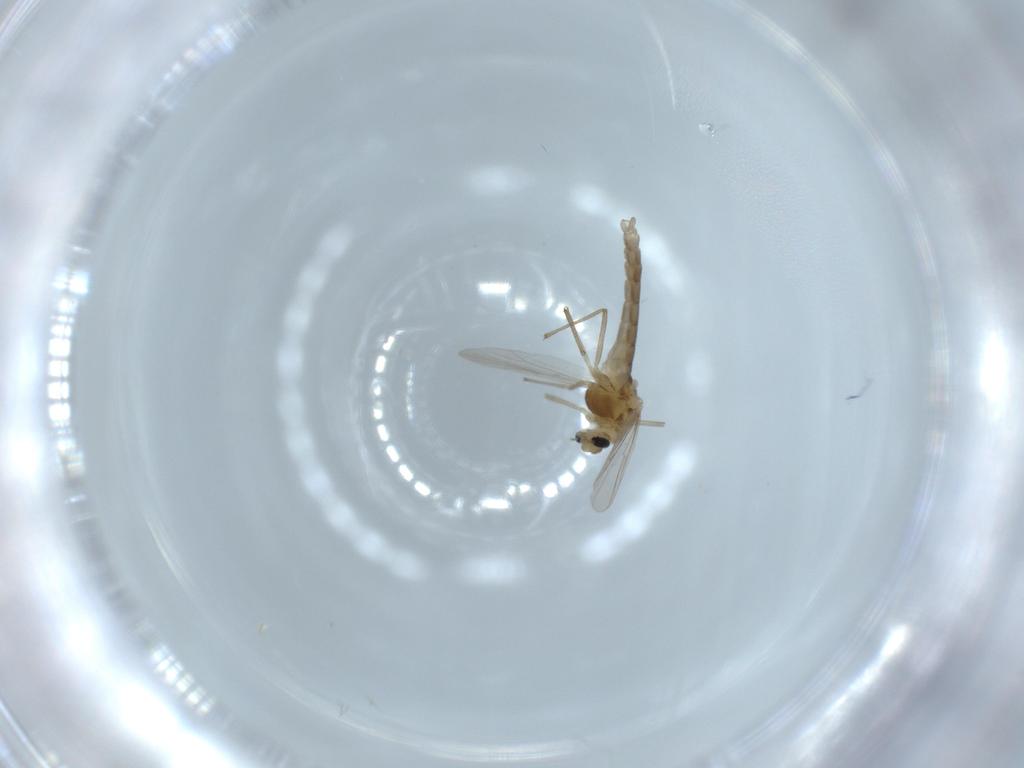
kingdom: Animalia
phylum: Arthropoda
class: Insecta
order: Diptera
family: Chironomidae
